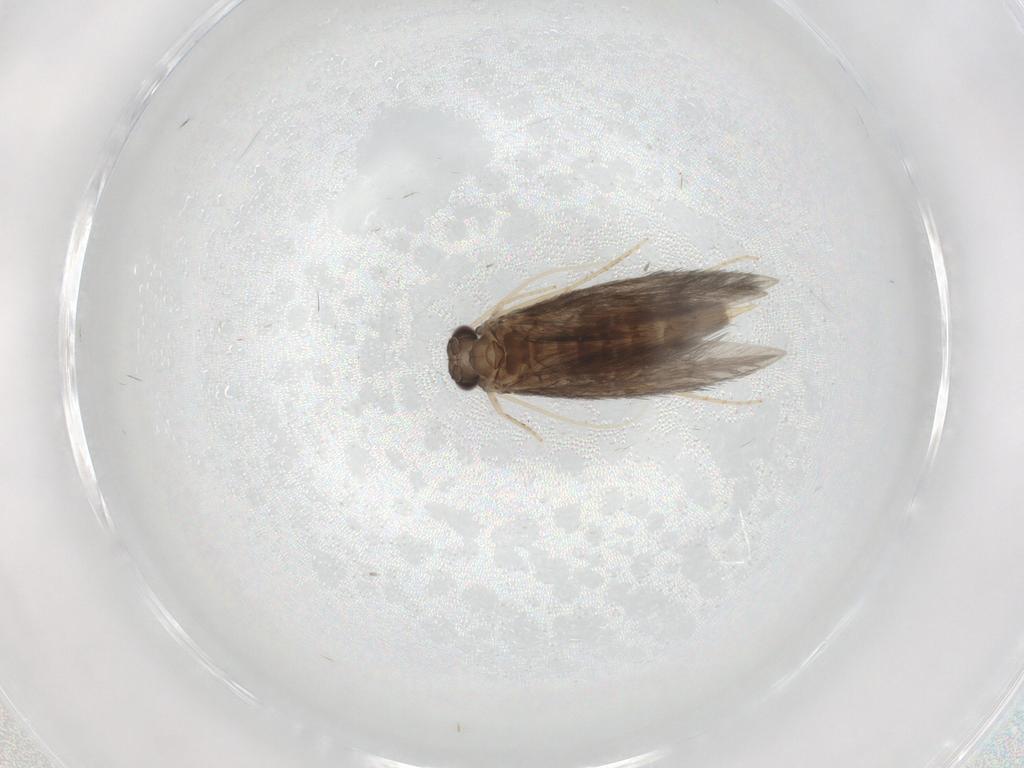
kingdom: Animalia
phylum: Arthropoda
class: Insecta
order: Trichoptera
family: Hydroptilidae
